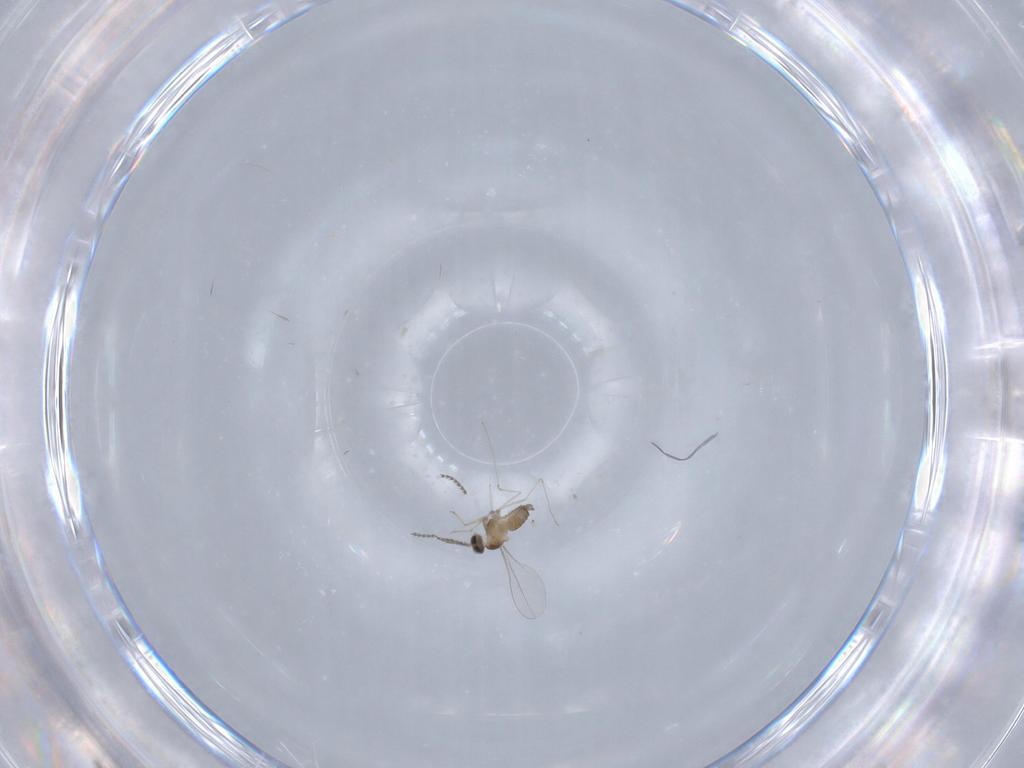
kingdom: Animalia
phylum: Arthropoda
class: Insecta
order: Diptera
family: Cecidomyiidae
